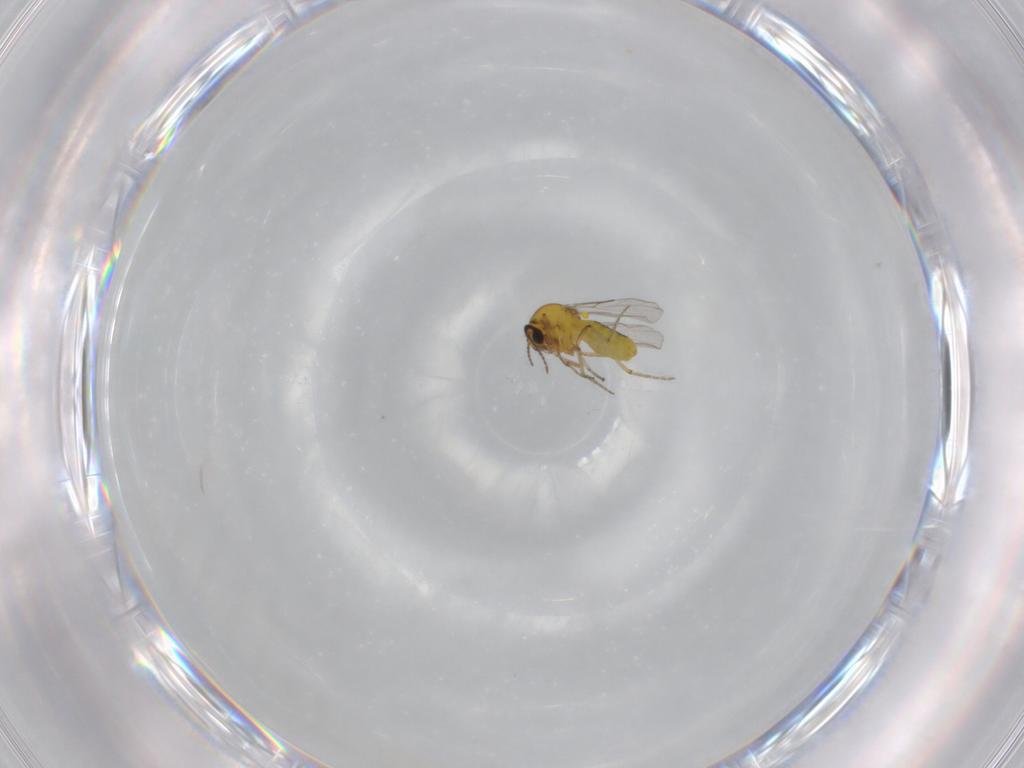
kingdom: Animalia
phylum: Arthropoda
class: Insecta
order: Diptera
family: Ceratopogonidae
